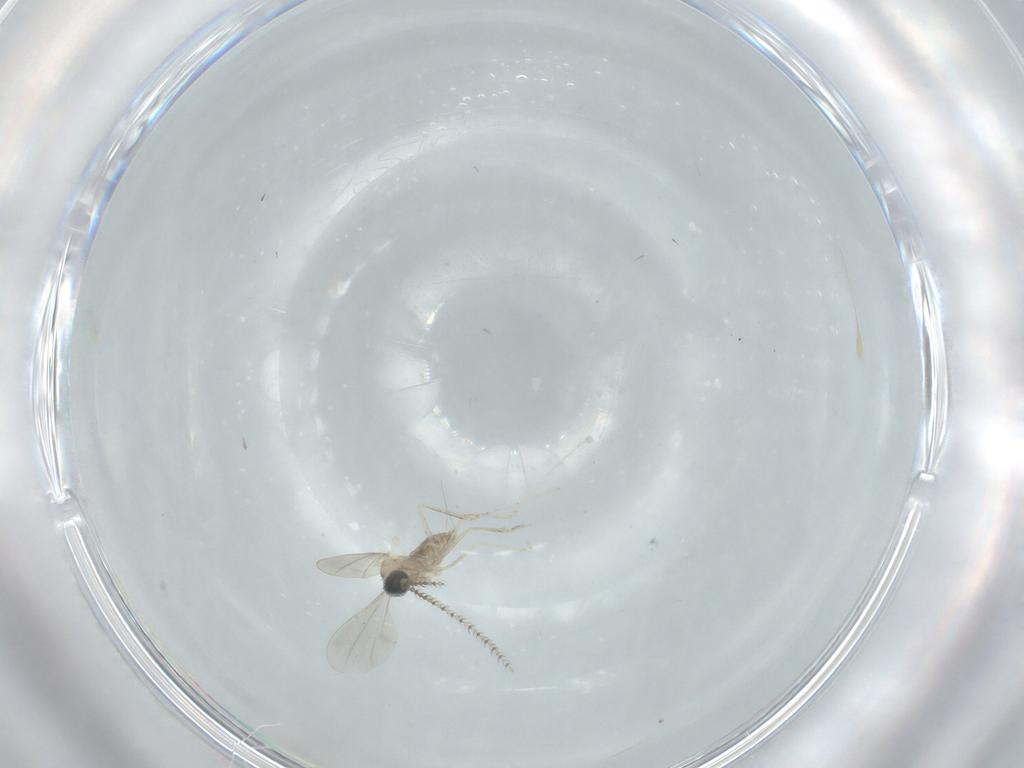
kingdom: Animalia
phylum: Arthropoda
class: Insecta
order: Diptera
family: Cecidomyiidae
